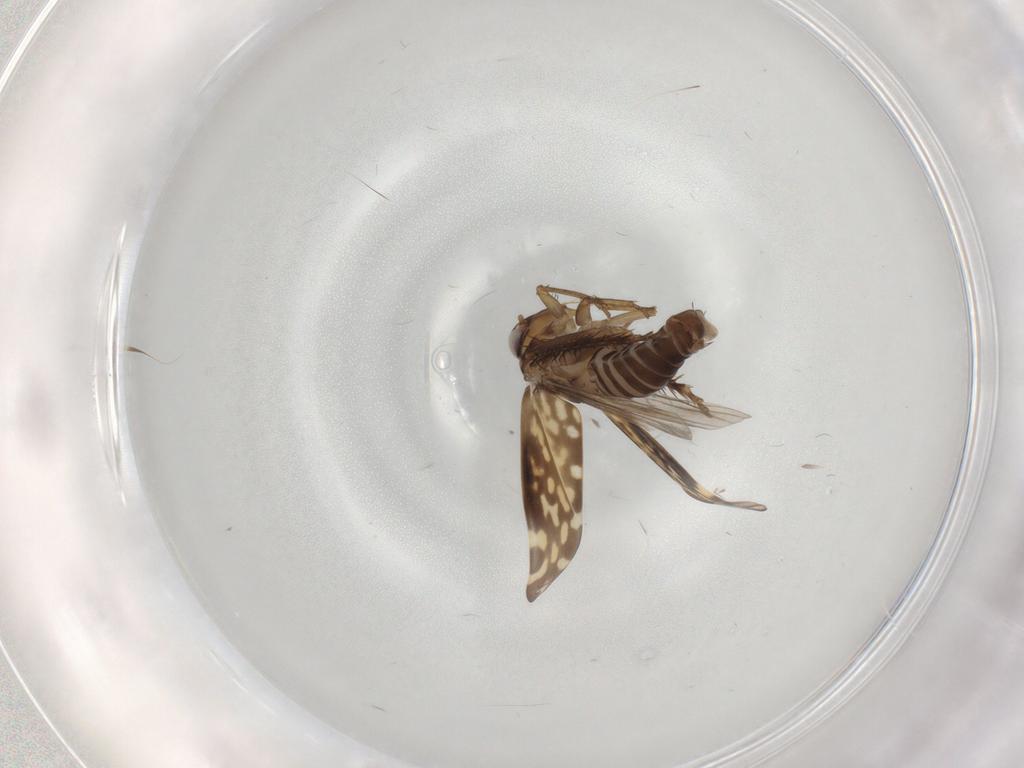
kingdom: Animalia
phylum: Arthropoda
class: Insecta
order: Hemiptera
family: Cicadellidae
